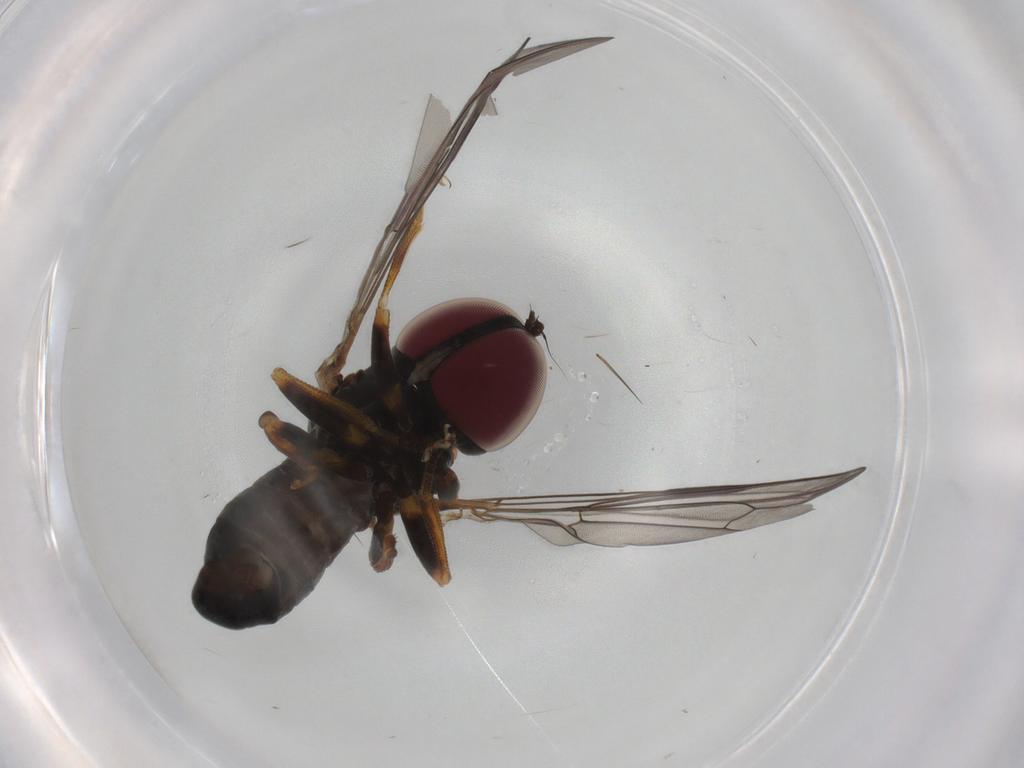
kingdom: Animalia
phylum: Arthropoda
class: Insecta
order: Diptera
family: Pipunculidae
